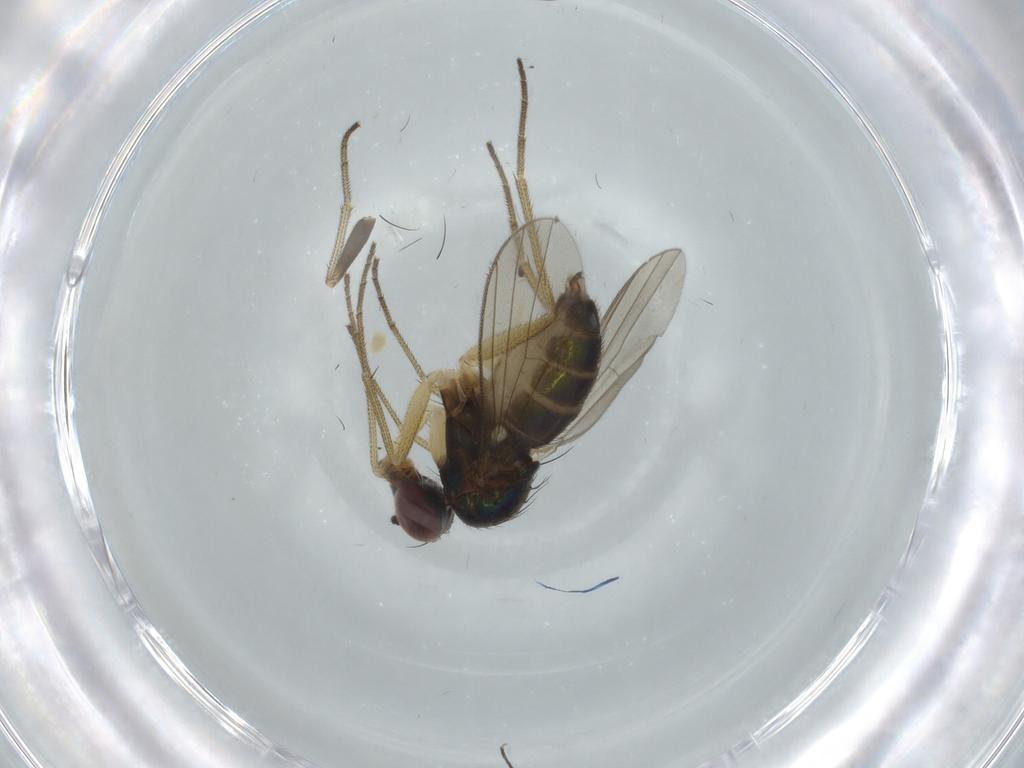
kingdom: Animalia
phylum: Arthropoda
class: Insecta
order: Diptera
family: Dolichopodidae
